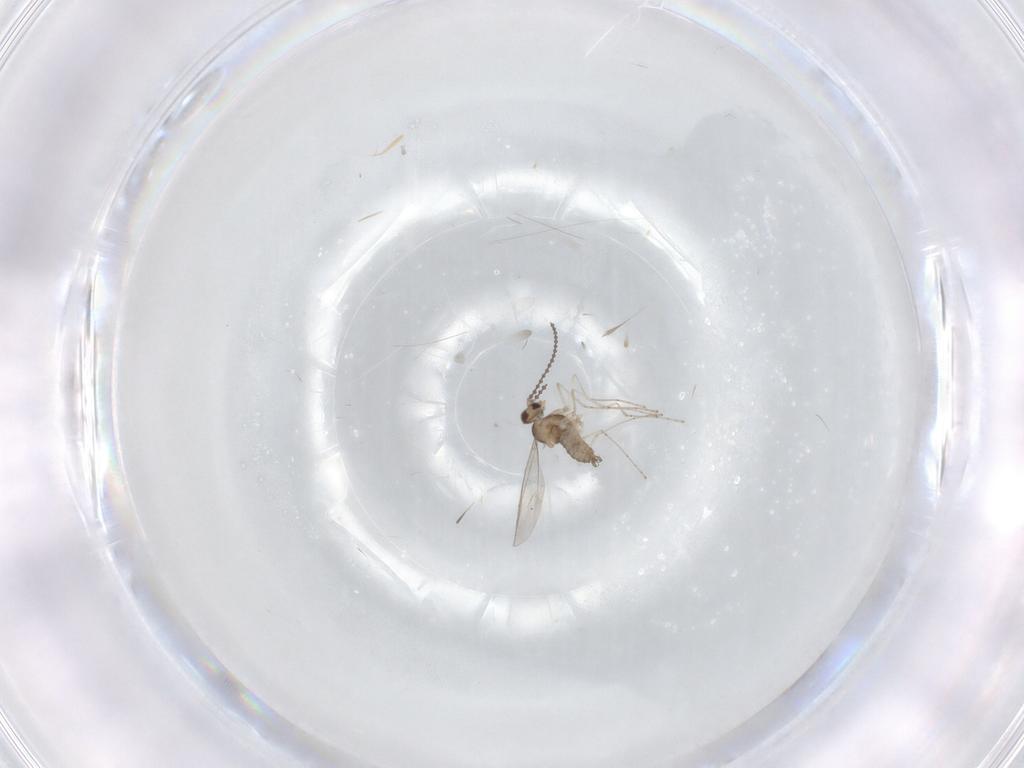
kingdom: Animalia
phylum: Arthropoda
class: Insecta
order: Diptera
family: Cecidomyiidae
